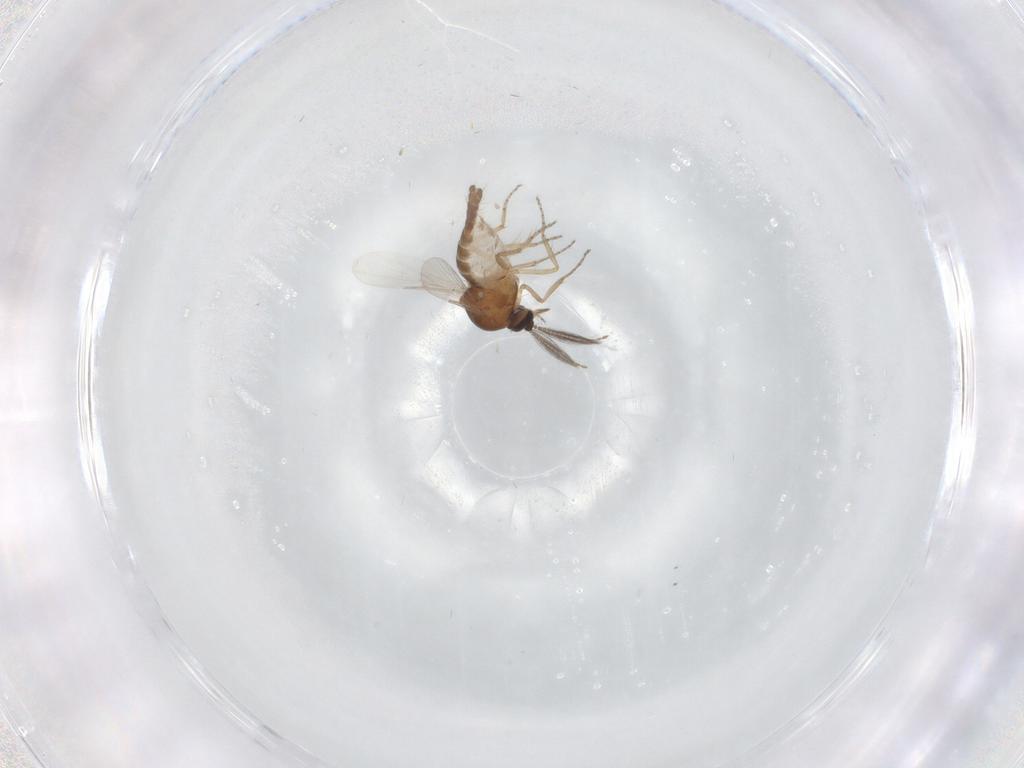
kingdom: Animalia
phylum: Arthropoda
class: Insecta
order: Diptera
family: Ceratopogonidae
